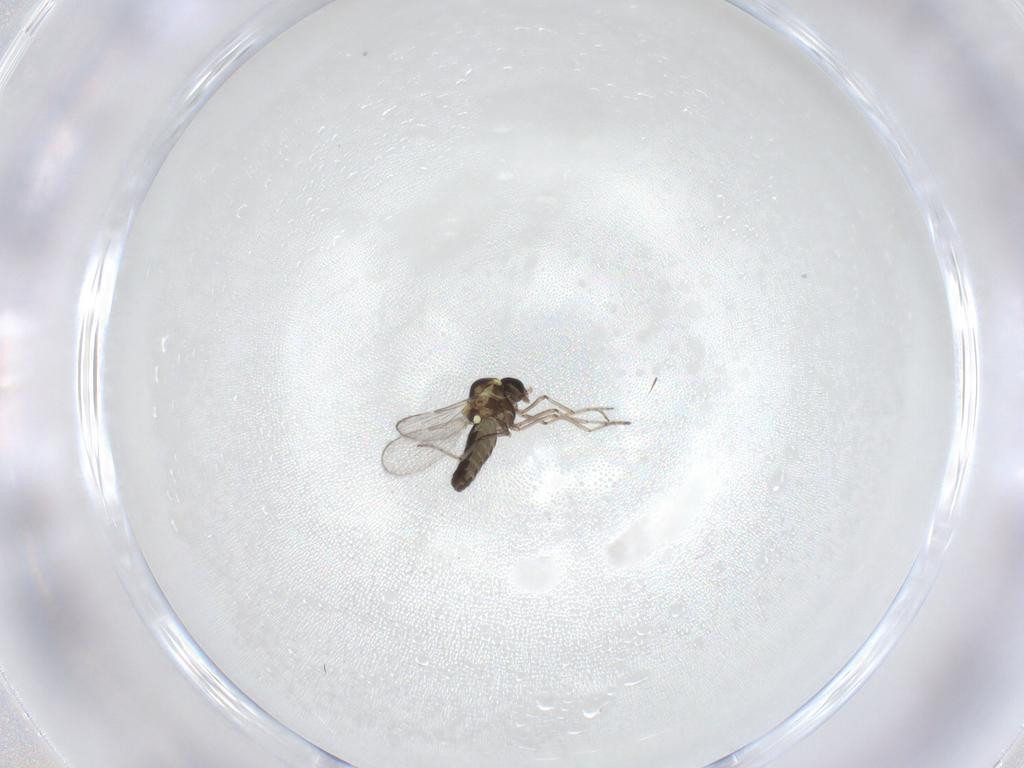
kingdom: Animalia
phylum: Arthropoda
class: Insecta
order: Diptera
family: Ceratopogonidae
